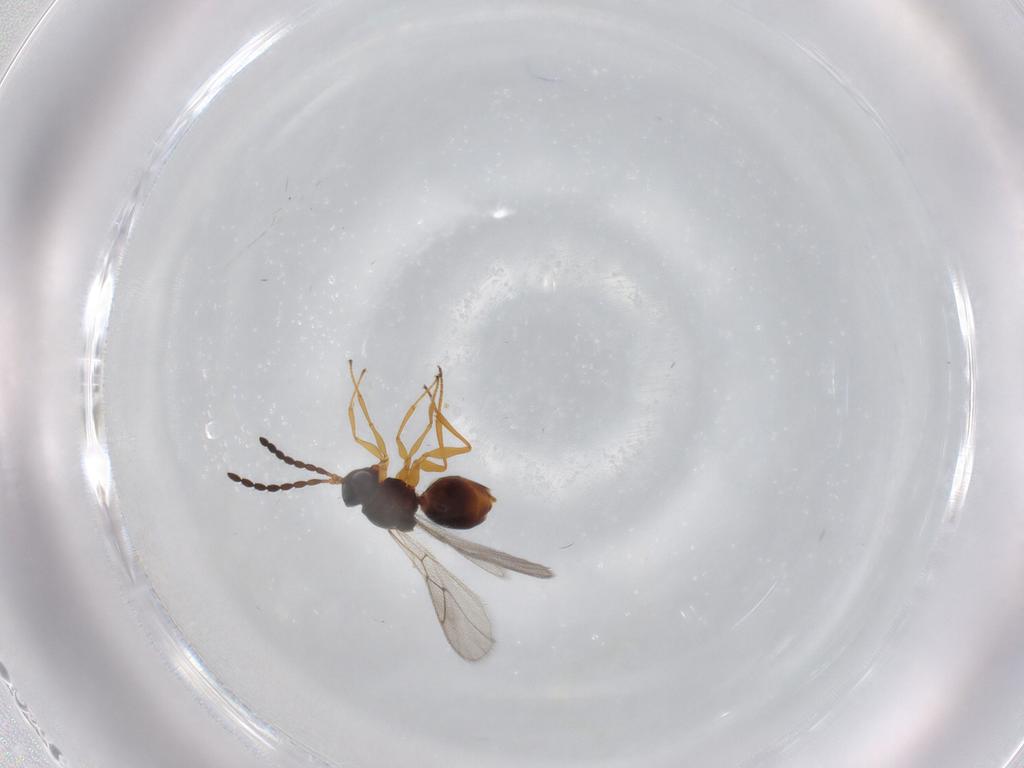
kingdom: Animalia
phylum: Arthropoda
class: Insecta
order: Hymenoptera
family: Figitidae
